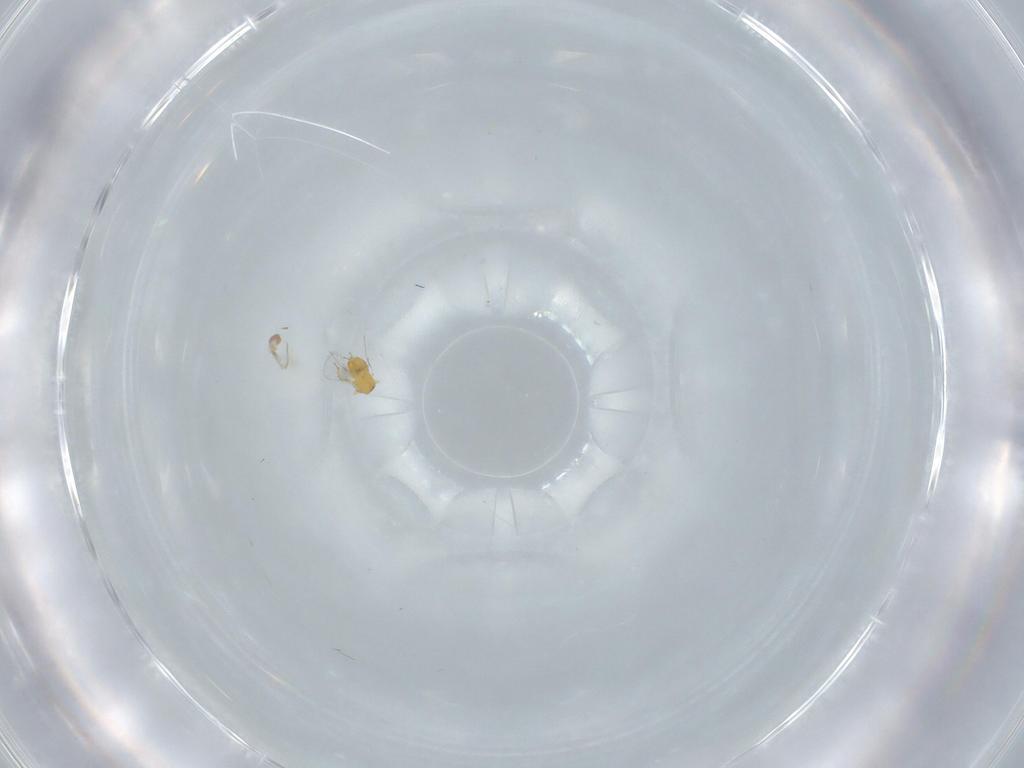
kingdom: Animalia
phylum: Arthropoda
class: Insecta
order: Hymenoptera
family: Trichogrammatidae
